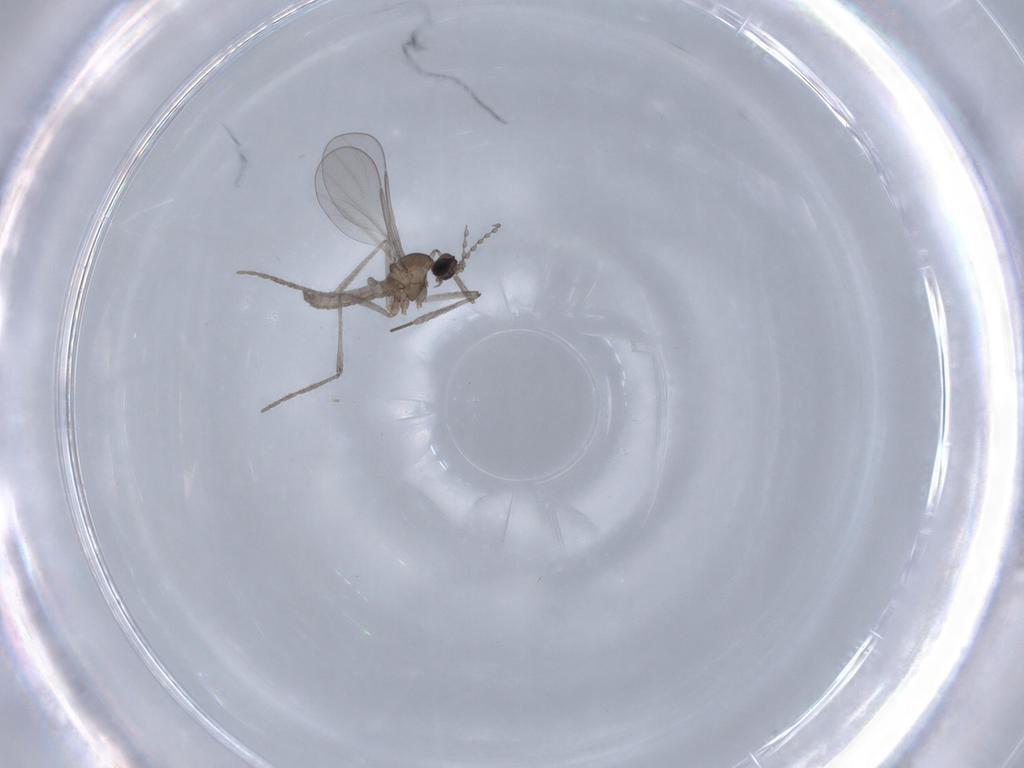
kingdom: Animalia
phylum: Arthropoda
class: Insecta
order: Diptera
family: Cecidomyiidae
